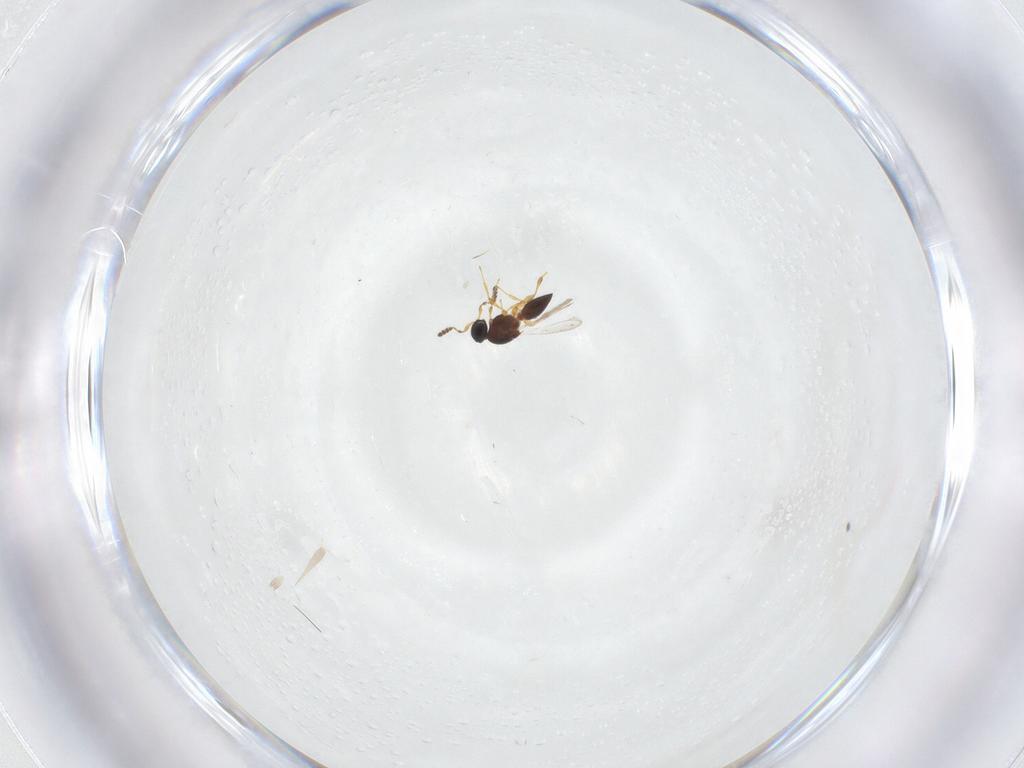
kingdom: Animalia
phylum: Arthropoda
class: Insecta
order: Hymenoptera
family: Platygastridae
